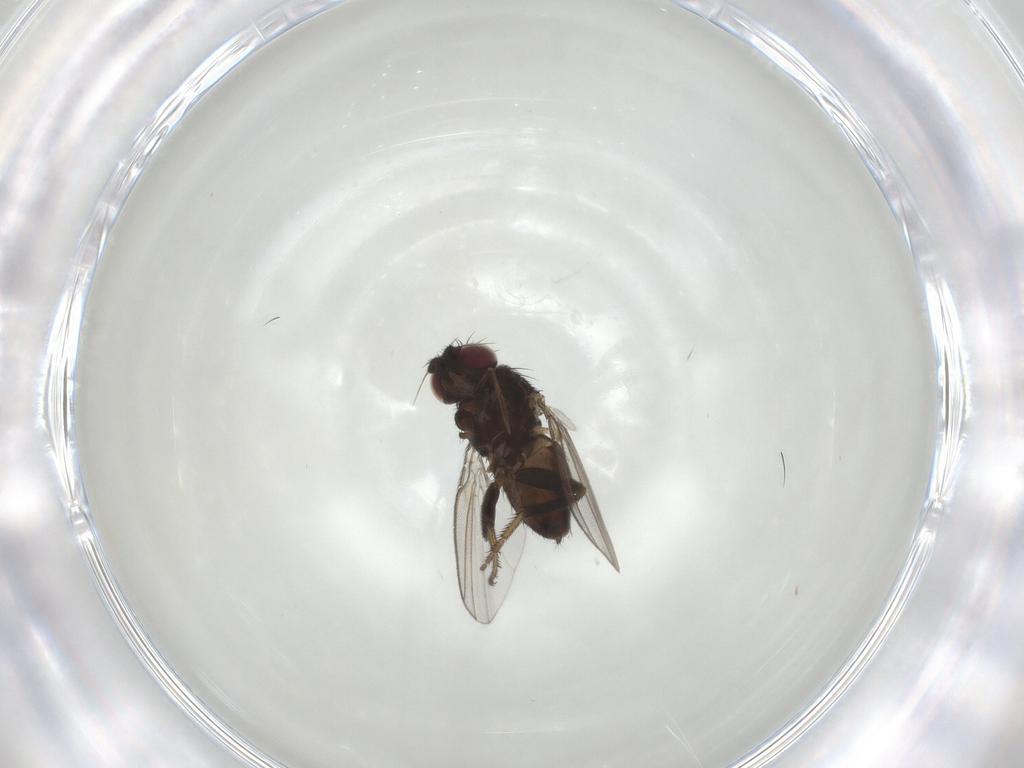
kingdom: Animalia
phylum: Arthropoda
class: Insecta
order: Diptera
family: Milichiidae
